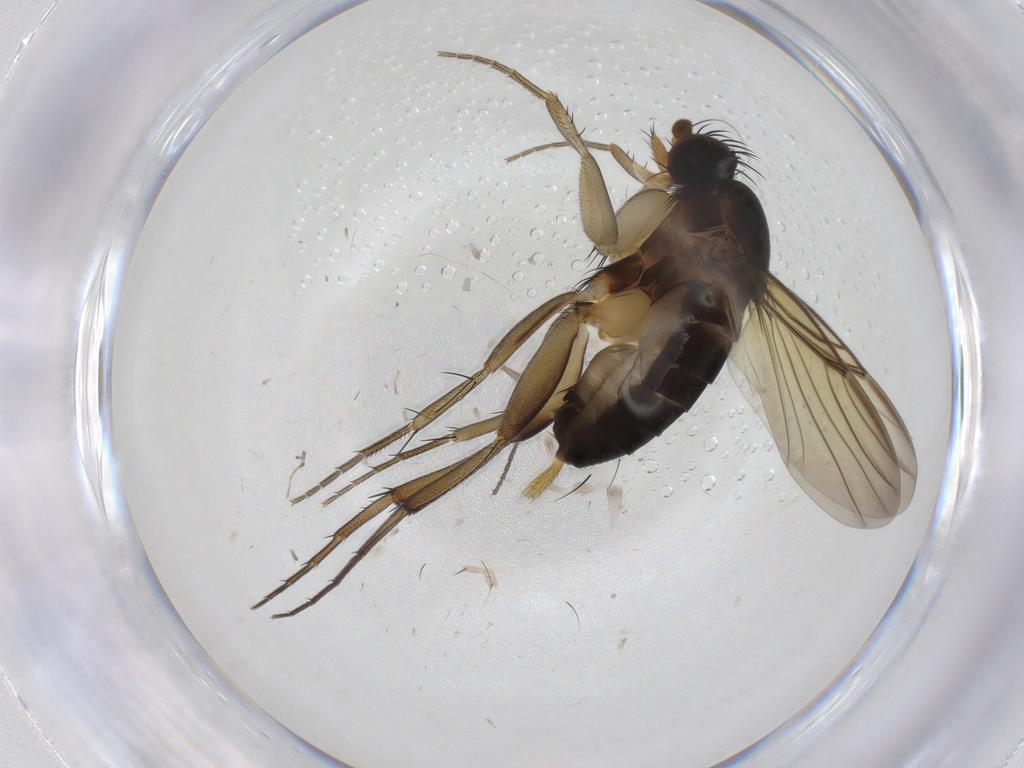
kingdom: Animalia
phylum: Arthropoda
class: Insecta
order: Diptera
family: Phoridae
